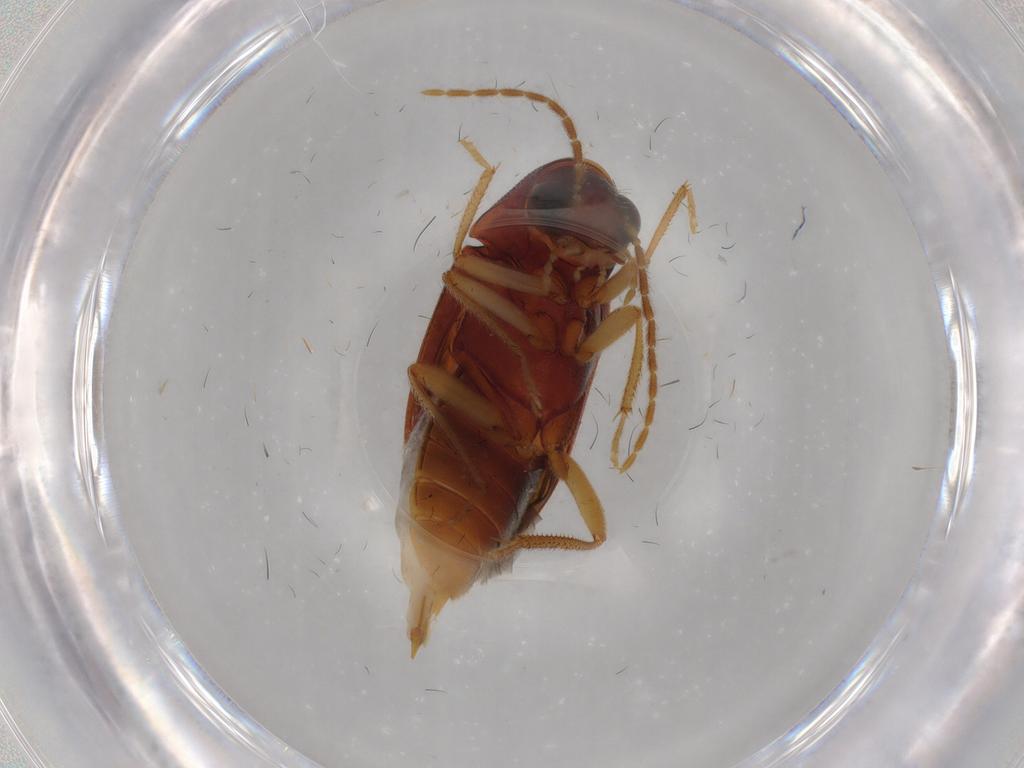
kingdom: Animalia
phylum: Arthropoda
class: Insecta
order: Coleoptera
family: Ptilodactylidae
